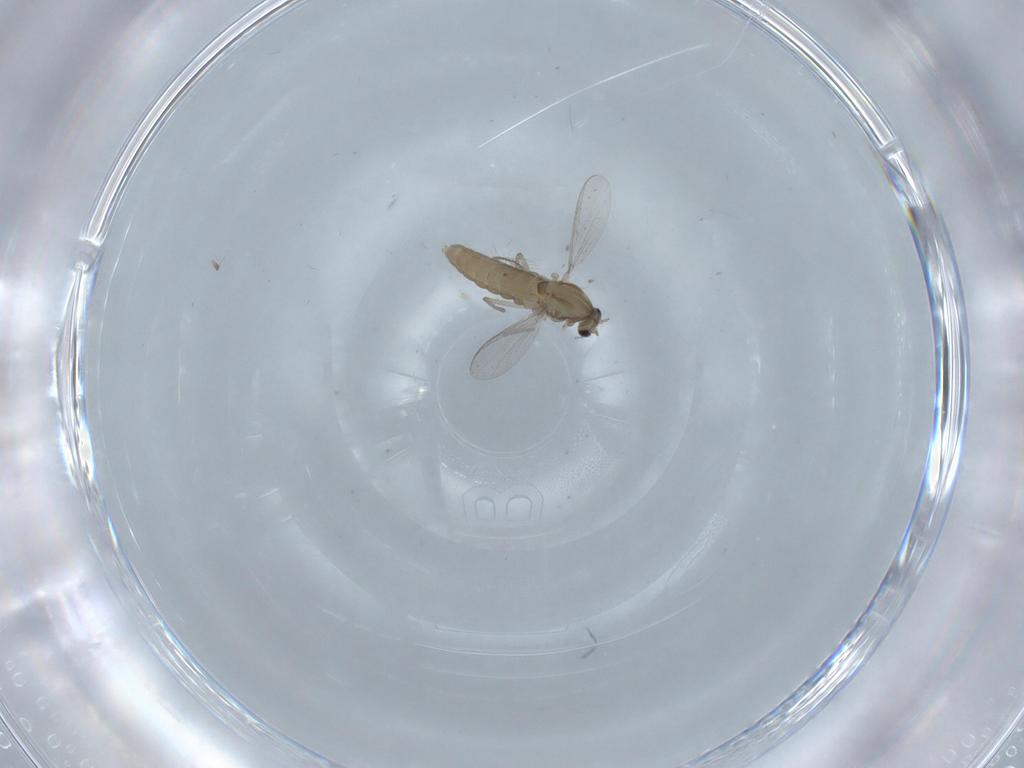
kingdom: Animalia
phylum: Arthropoda
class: Insecta
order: Diptera
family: Chironomidae
